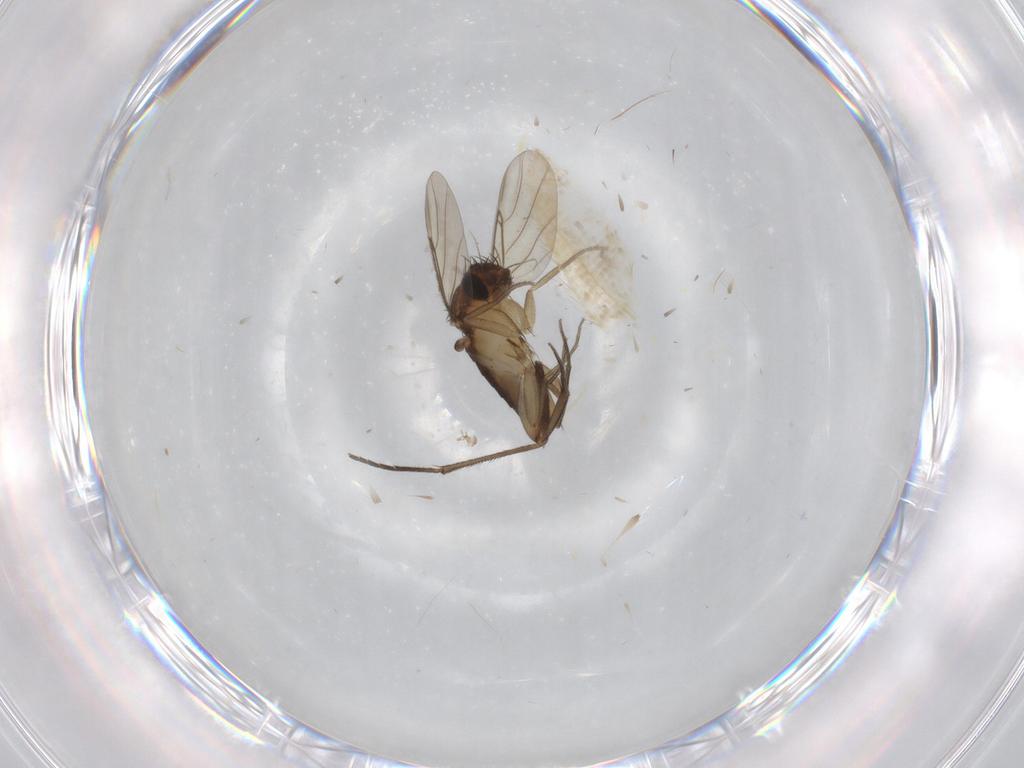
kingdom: Animalia
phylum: Arthropoda
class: Insecta
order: Diptera
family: Phoridae
